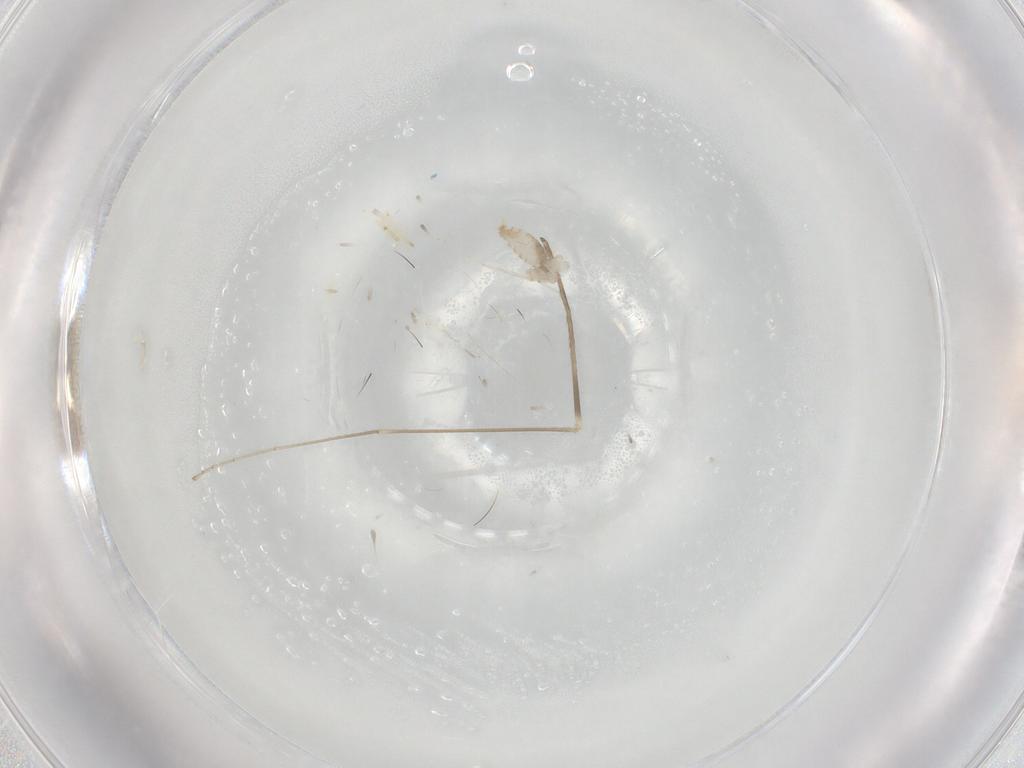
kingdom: Animalia
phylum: Arthropoda
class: Insecta
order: Diptera
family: Limoniidae
